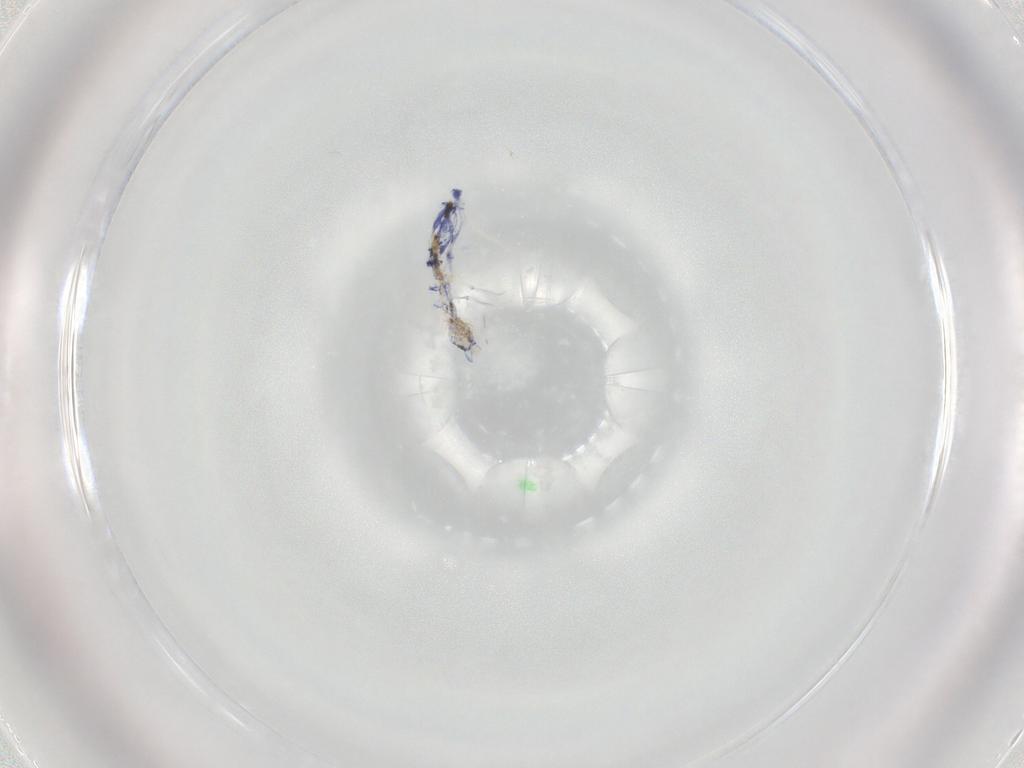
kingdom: Animalia
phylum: Arthropoda
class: Collembola
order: Entomobryomorpha
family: Entomobryidae
